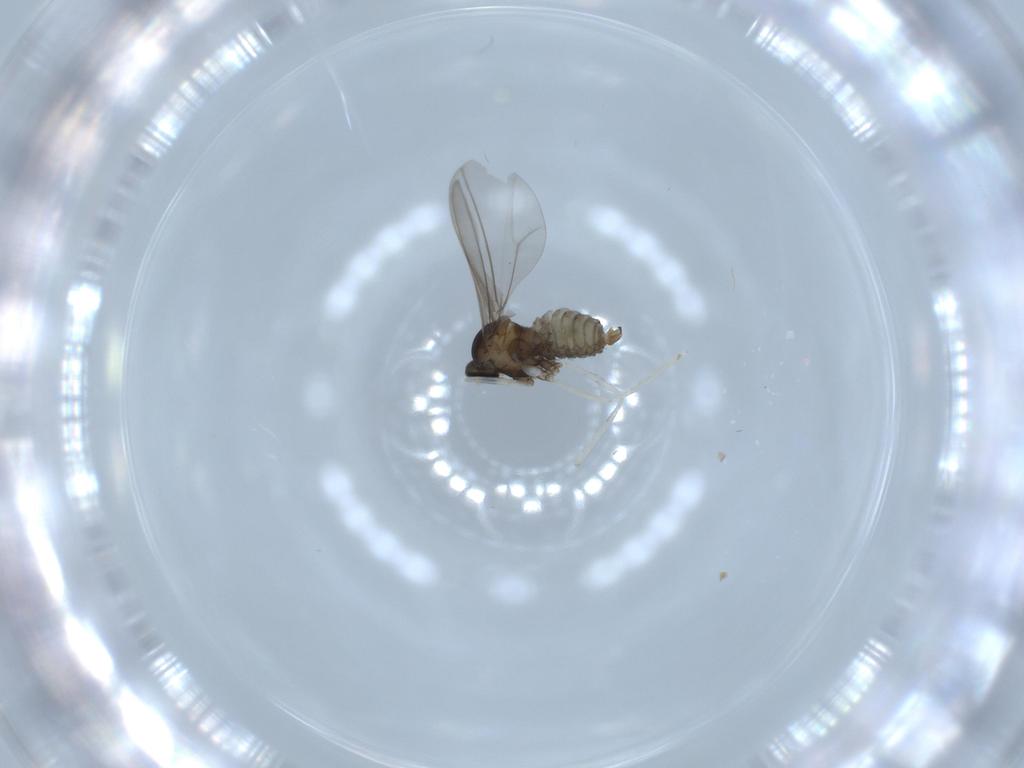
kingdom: Animalia
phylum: Arthropoda
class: Insecta
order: Diptera
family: Cecidomyiidae
